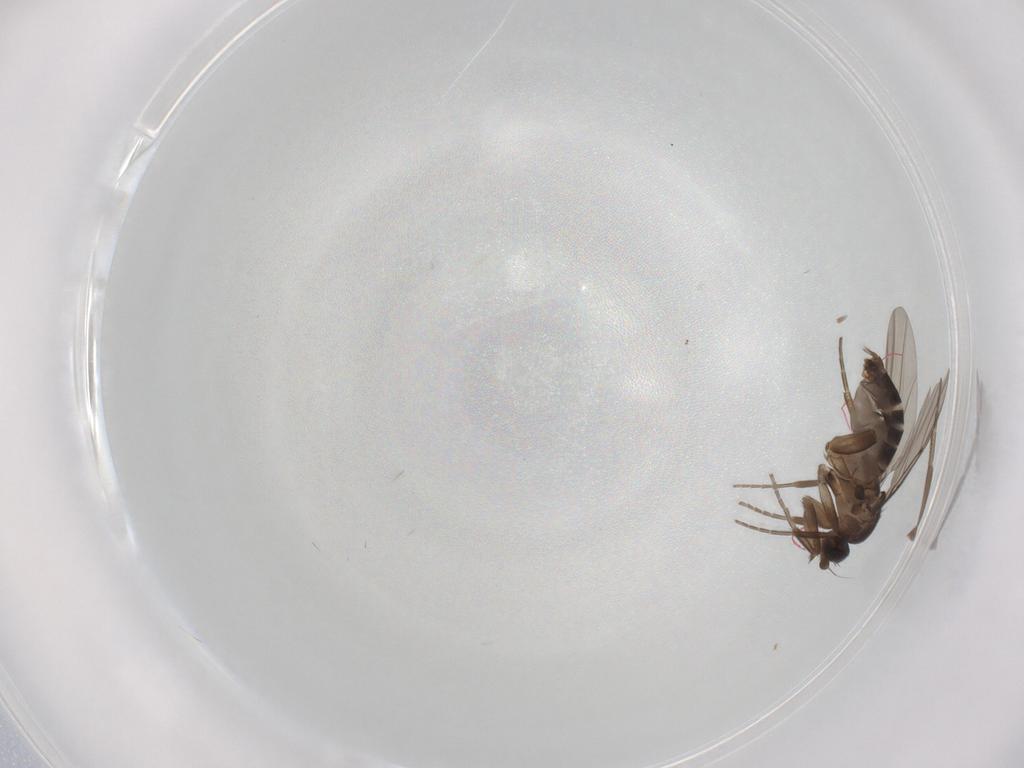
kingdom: Animalia
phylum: Arthropoda
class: Insecta
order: Diptera
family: Phoridae
